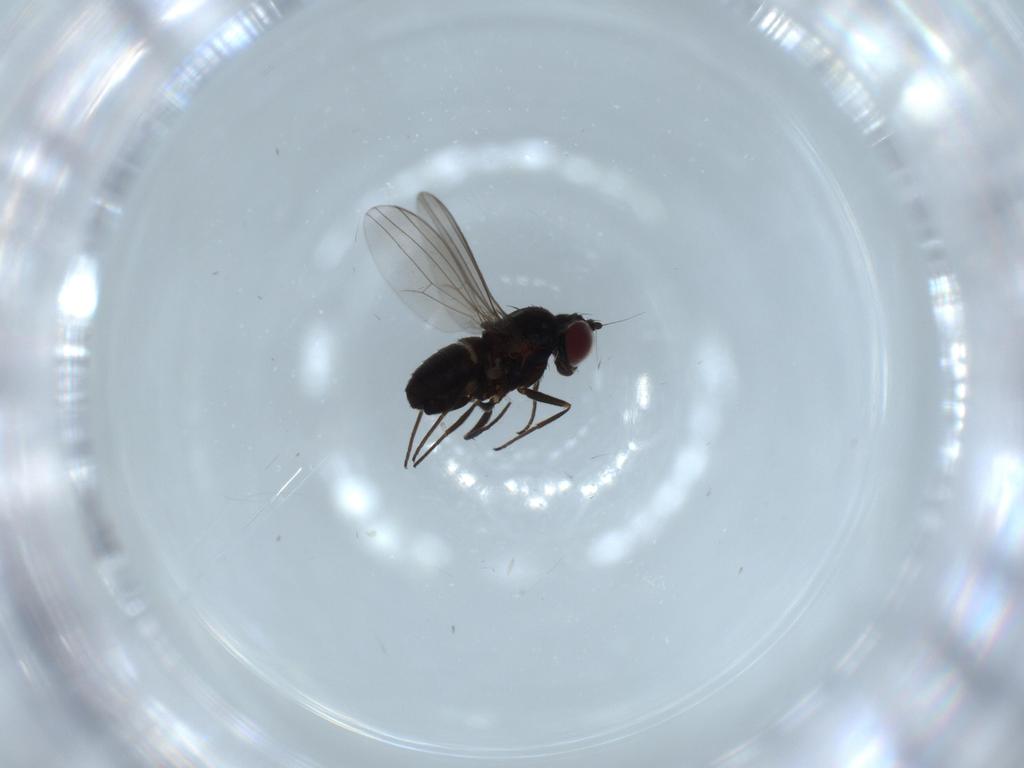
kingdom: Animalia
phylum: Arthropoda
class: Insecta
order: Diptera
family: Dolichopodidae
